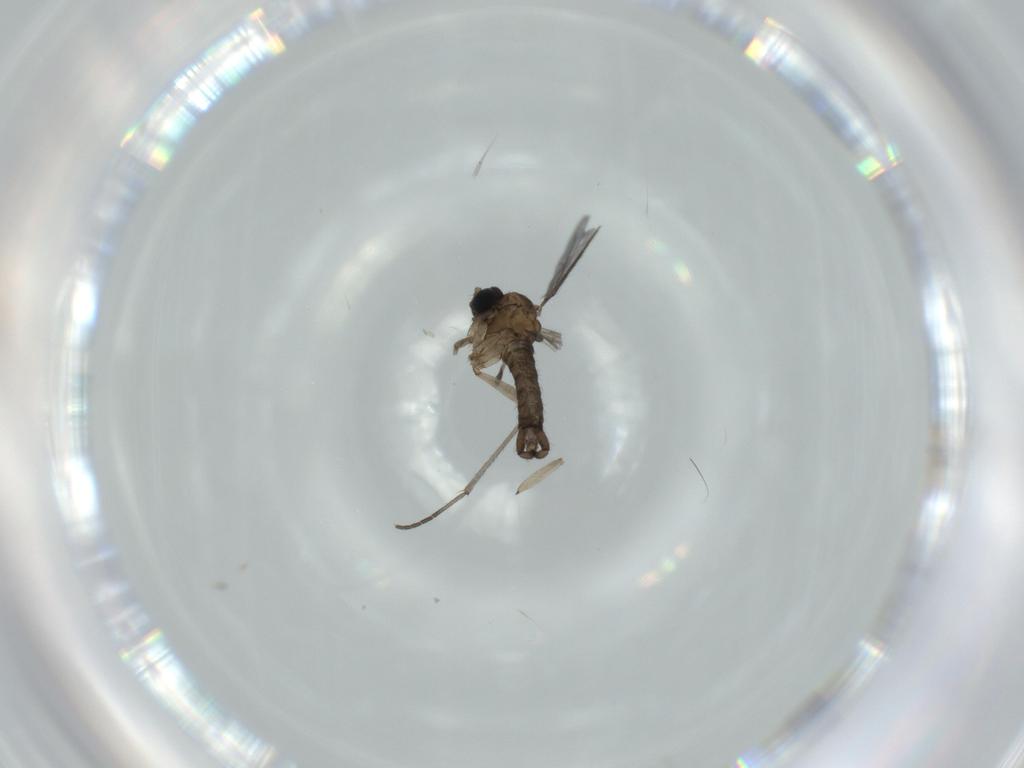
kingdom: Animalia
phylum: Arthropoda
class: Insecta
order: Diptera
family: Sciaridae
